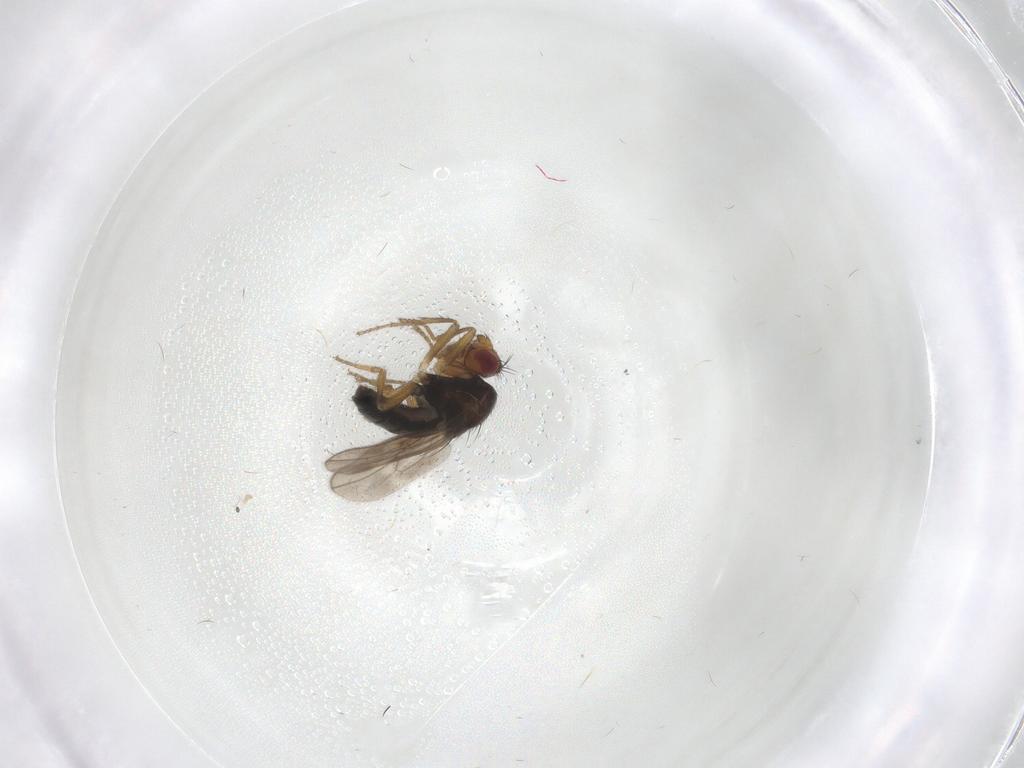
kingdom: Animalia
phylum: Arthropoda
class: Insecta
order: Diptera
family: Sphaeroceridae
